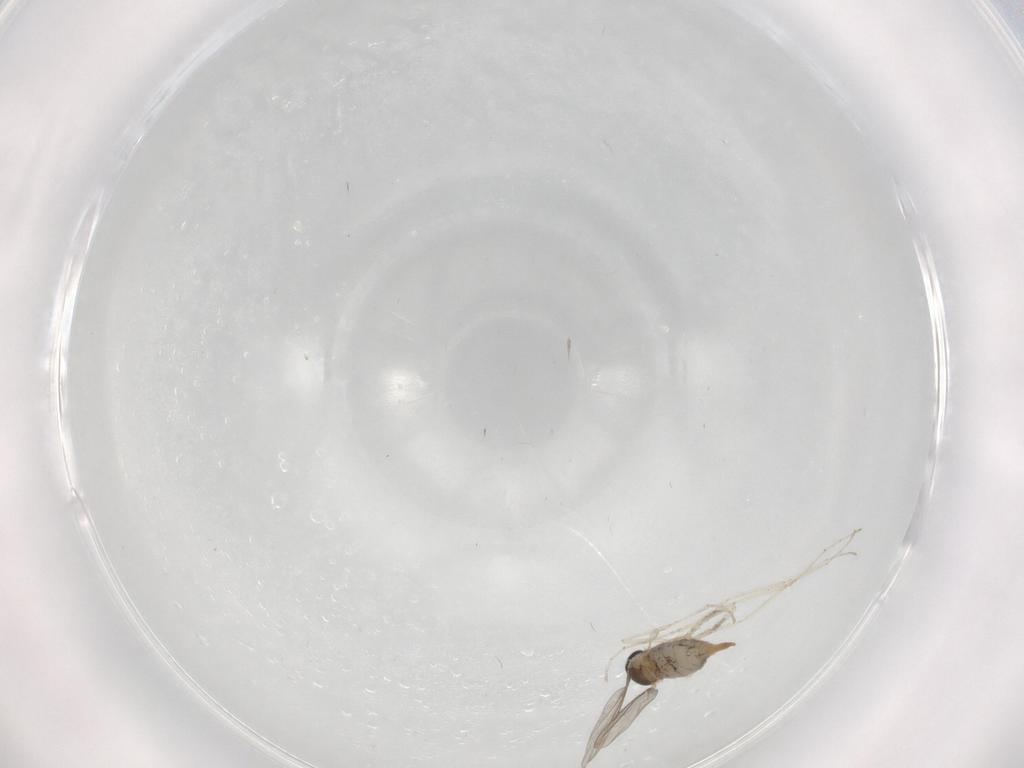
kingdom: Animalia
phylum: Arthropoda
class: Insecta
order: Diptera
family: Cecidomyiidae
